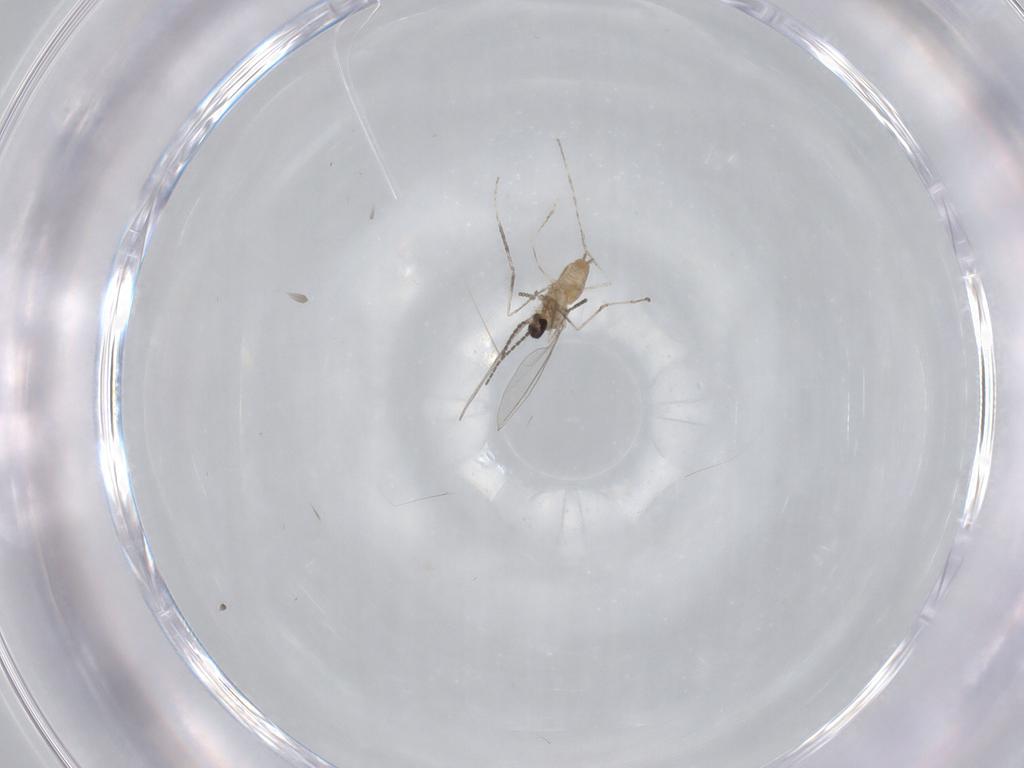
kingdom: Animalia
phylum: Arthropoda
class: Insecta
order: Diptera
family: Cecidomyiidae
